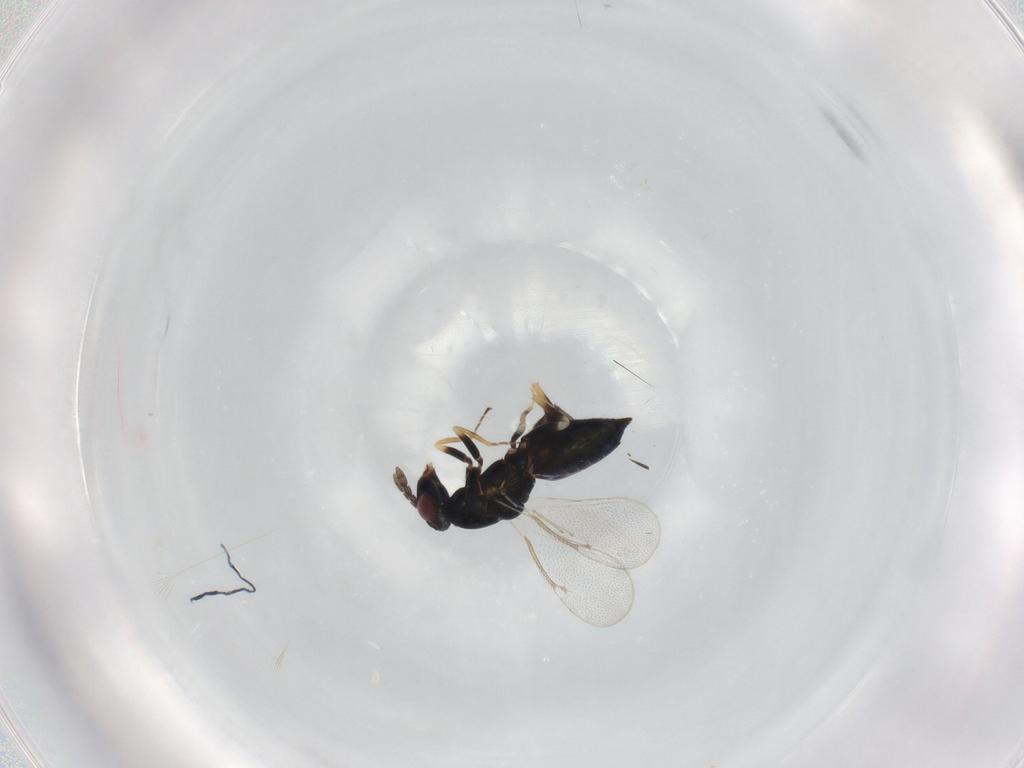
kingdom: Animalia
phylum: Arthropoda
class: Insecta
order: Hymenoptera
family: Eulophidae
